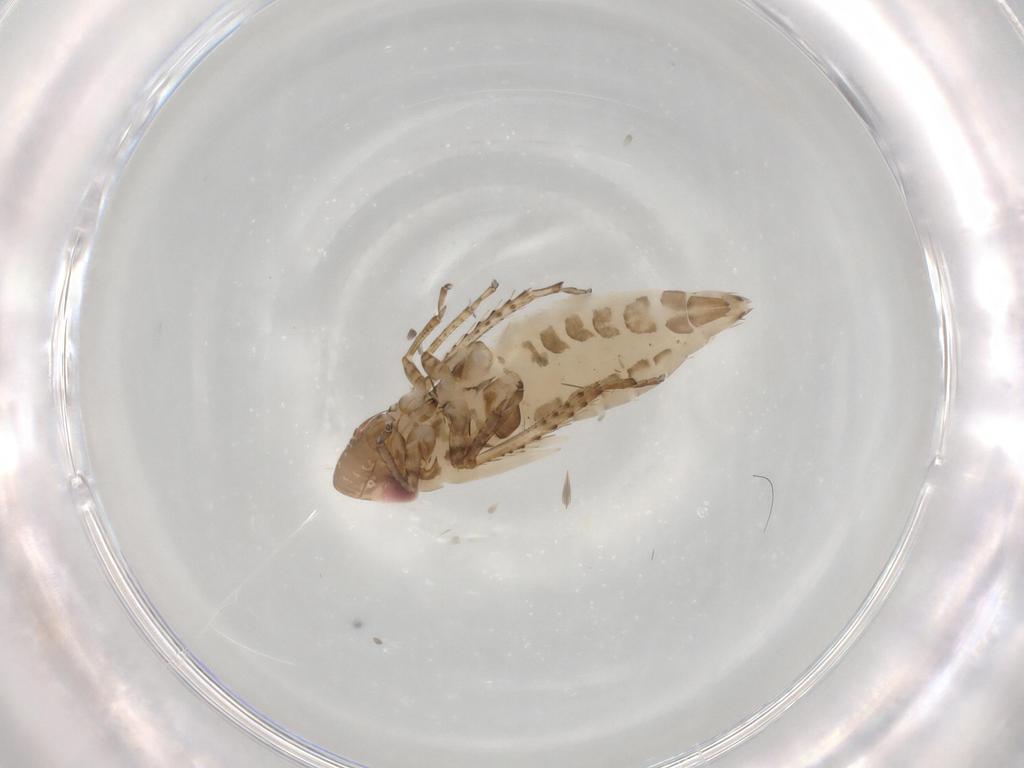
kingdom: Animalia
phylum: Arthropoda
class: Insecta
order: Hemiptera
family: Cicadellidae
